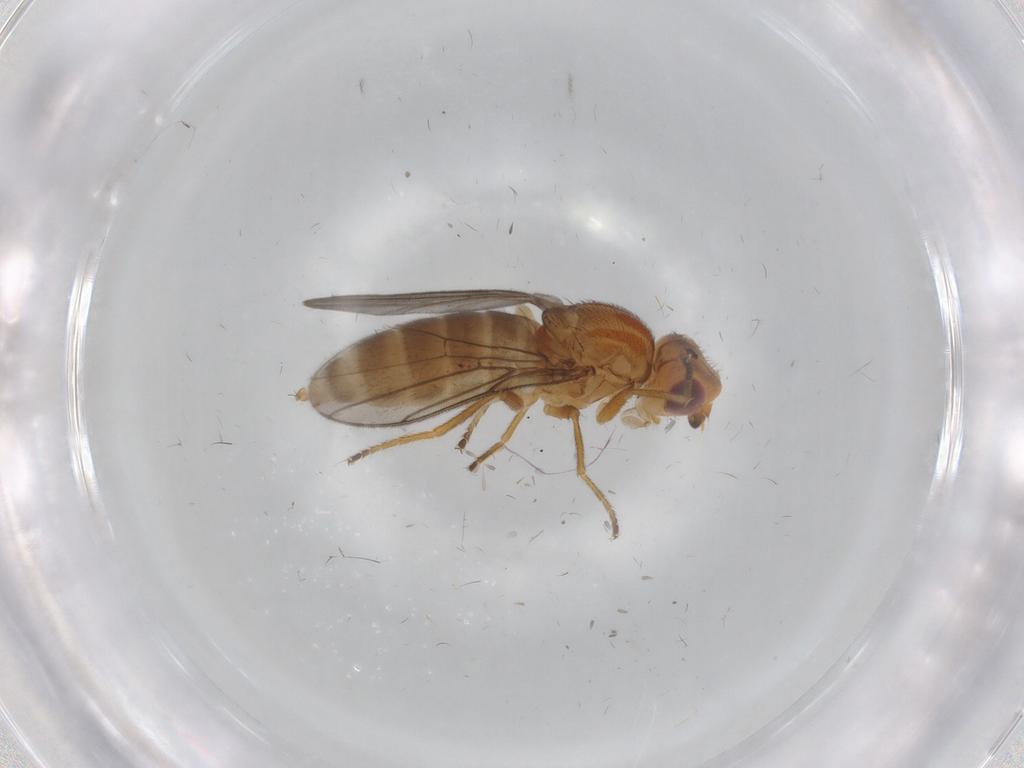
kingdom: Animalia
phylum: Arthropoda
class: Insecta
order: Diptera
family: Chloropidae
